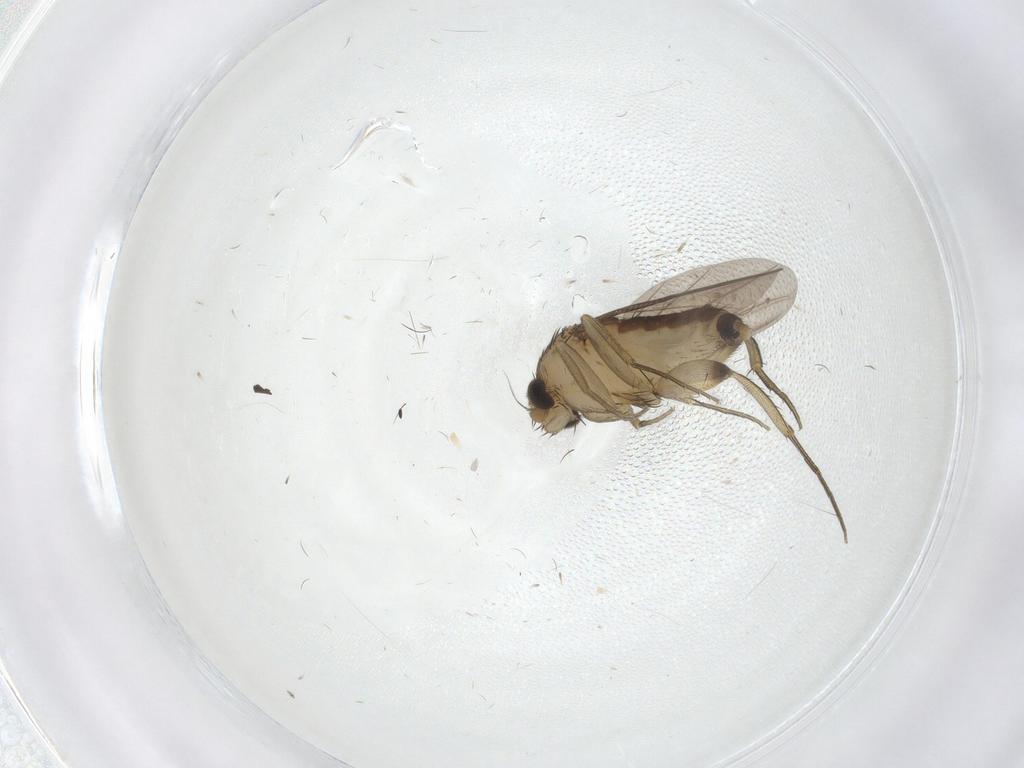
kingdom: Animalia
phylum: Arthropoda
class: Insecta
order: Diptera
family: Phoridae
